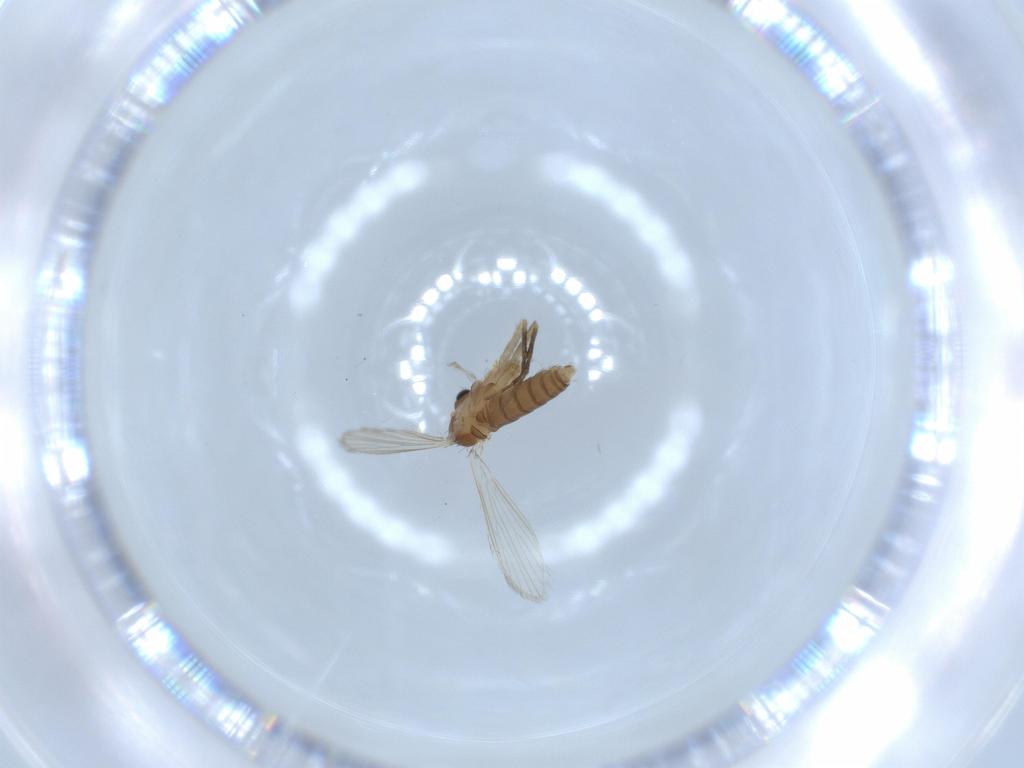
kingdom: Animalia
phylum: Arthropoda
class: Insecta
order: Diptera
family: Psychodidae
